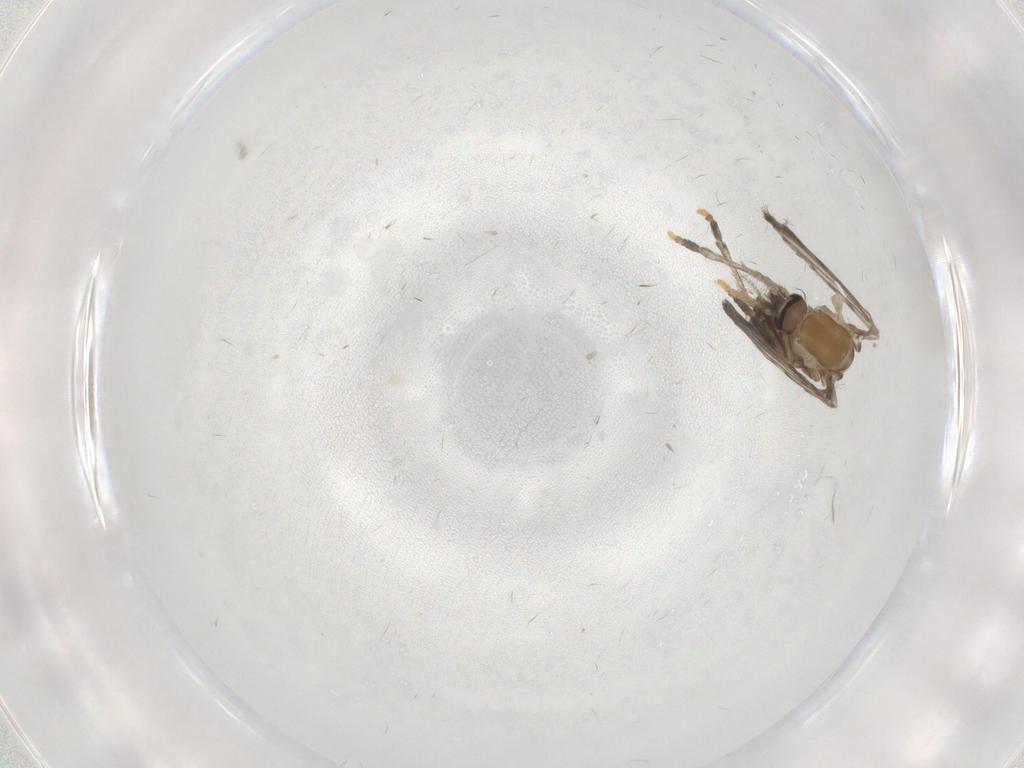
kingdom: Animalia
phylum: Arthropoda
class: Insecta
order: Diptera
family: Psychodidae
